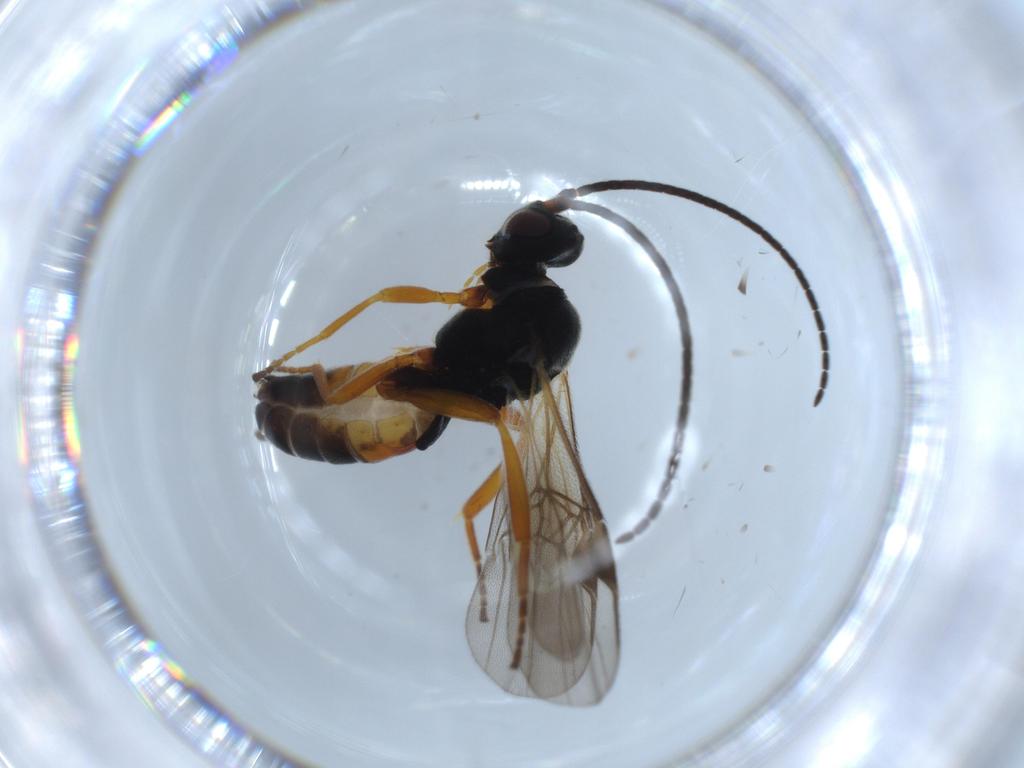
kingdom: Animalia
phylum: Arthropoda
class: Insecta
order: Hymenoptera
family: Braconidae
